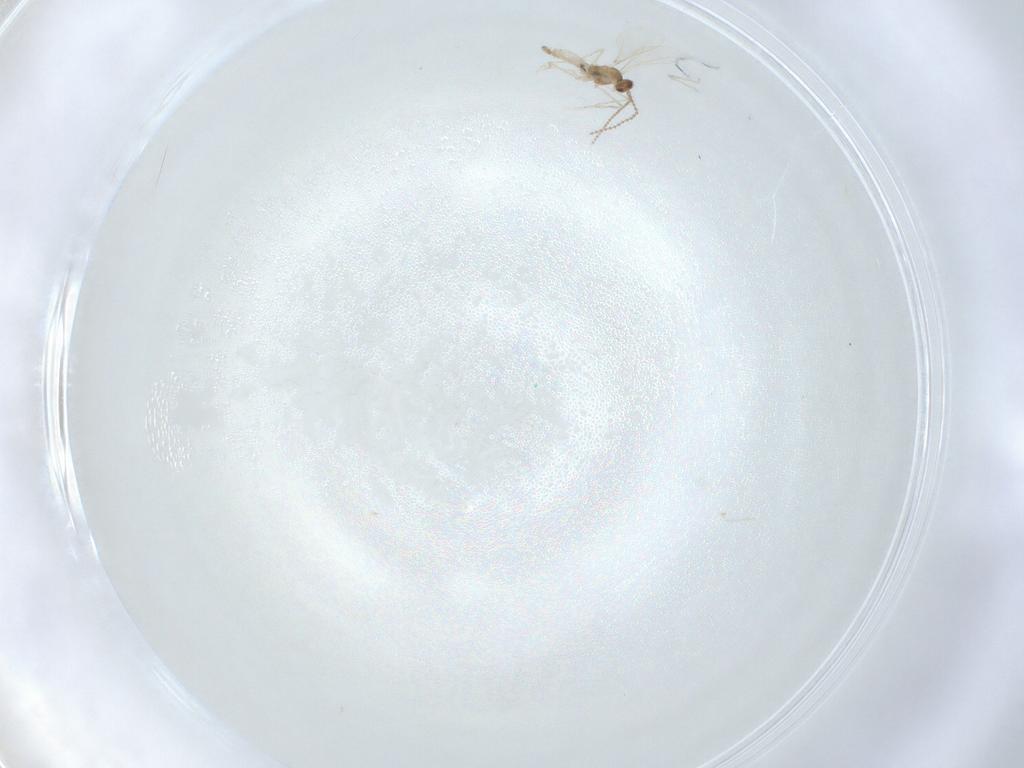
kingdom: Animalia
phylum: Arthropoda
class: Insecta
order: Diptera
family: Cecidomyiidae
